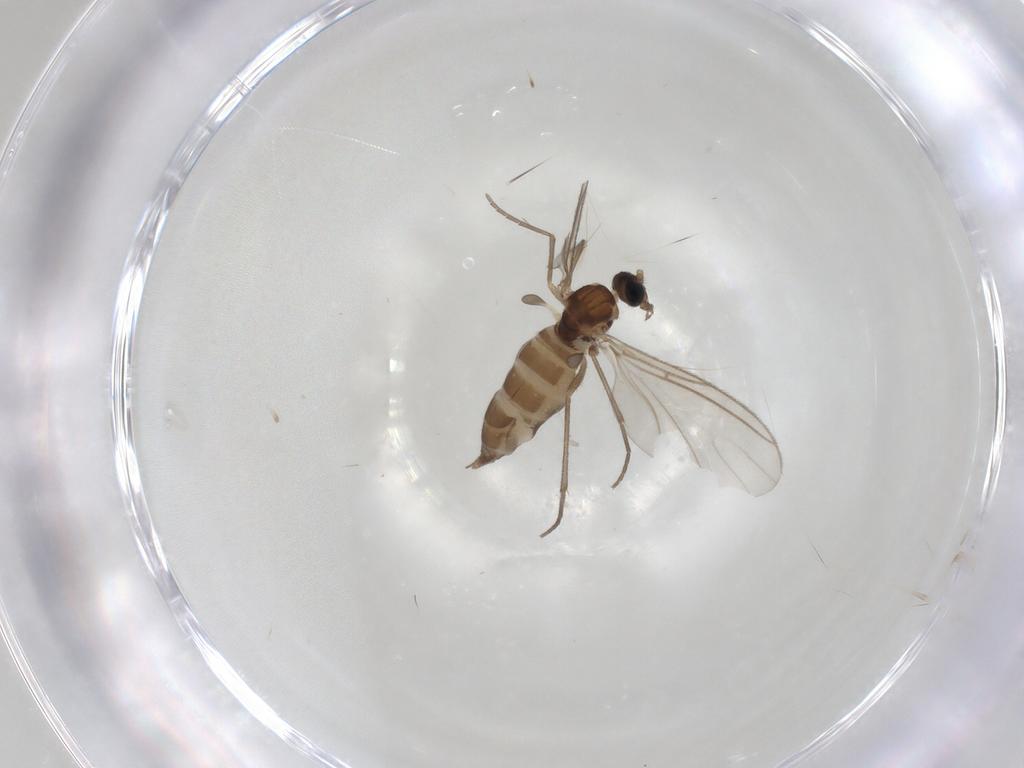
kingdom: Animalia
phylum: Arthropoda
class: Insecta
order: Diptera
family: Sciaridae
